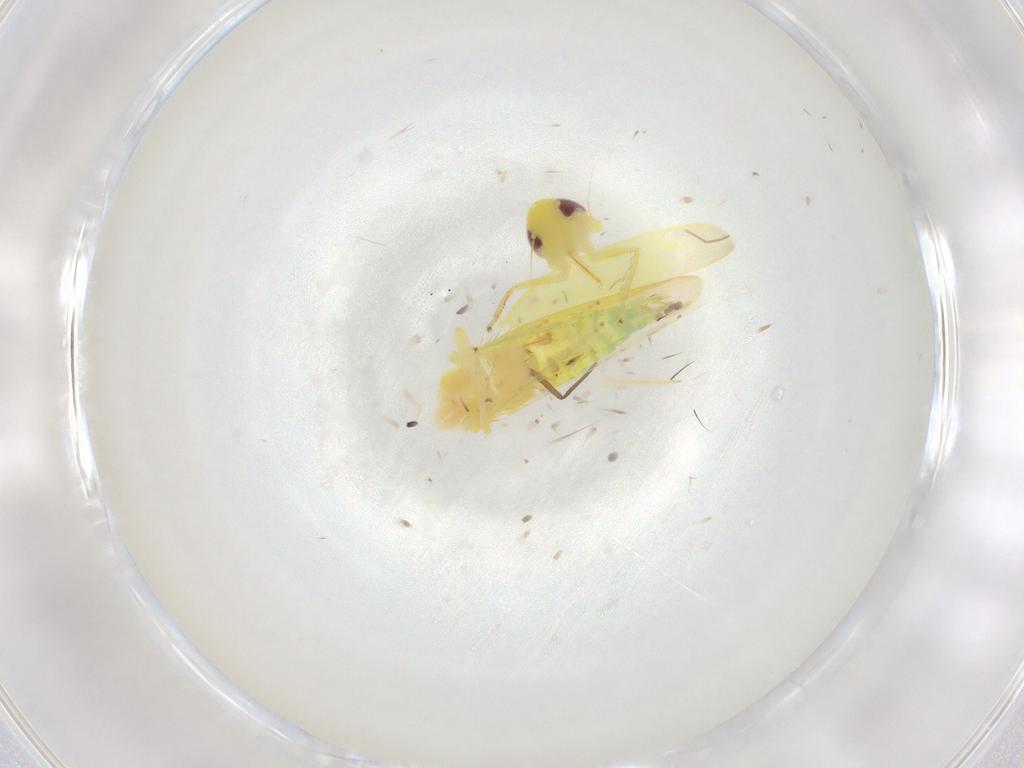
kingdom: Animalia
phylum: Arthropoda
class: Insecta
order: Hemiptera
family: Cicadellidae
